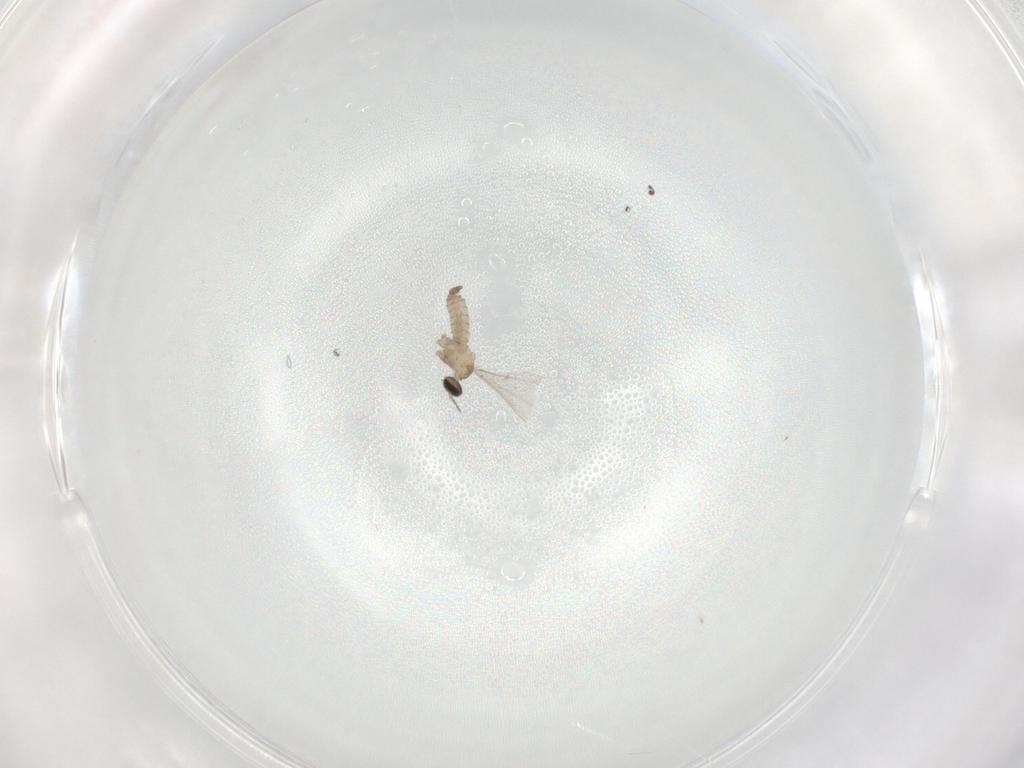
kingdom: Animalia
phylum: Arthropoda
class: Insecta
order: Diptera
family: Cecidomyiidae
